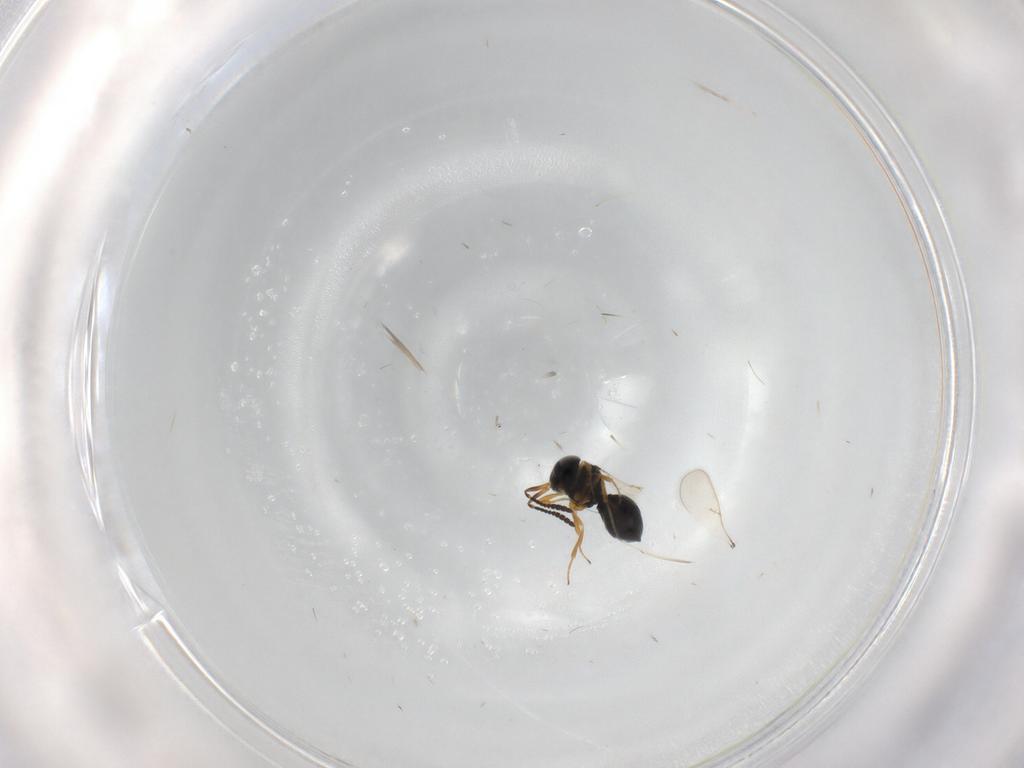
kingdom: Animalia
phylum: Arthropoda
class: Insecta
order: Hymenoptera
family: Scelionidae
